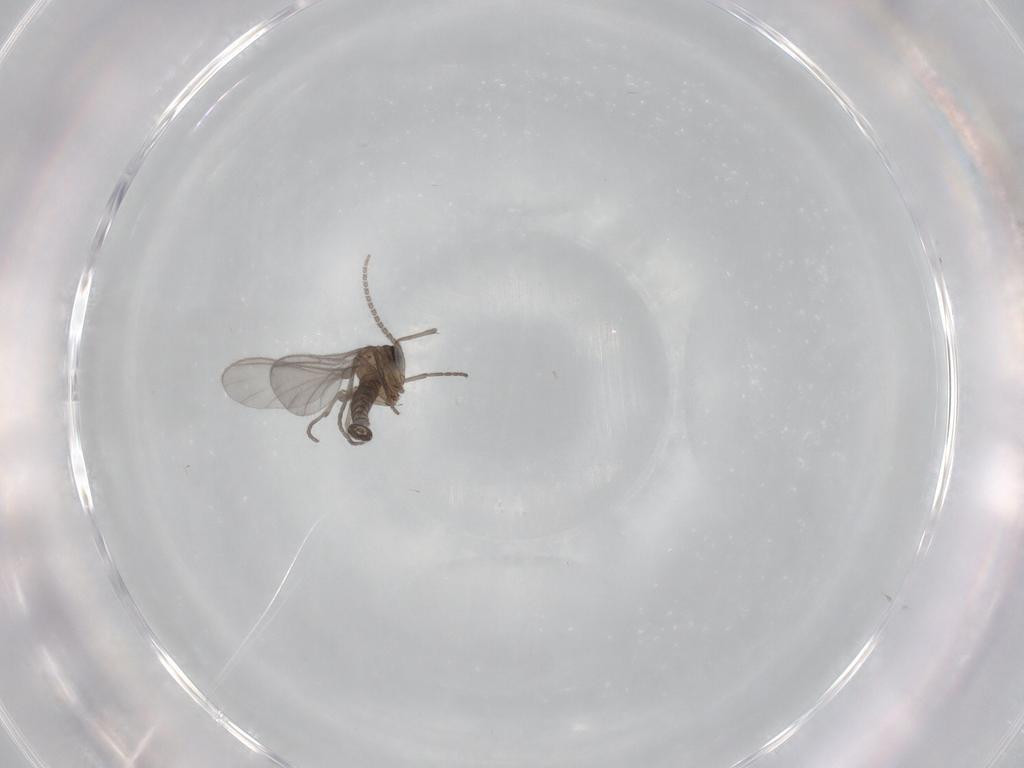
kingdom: Animalia
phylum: Arthropoda
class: Insecta
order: Diptera
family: Sciaridae
